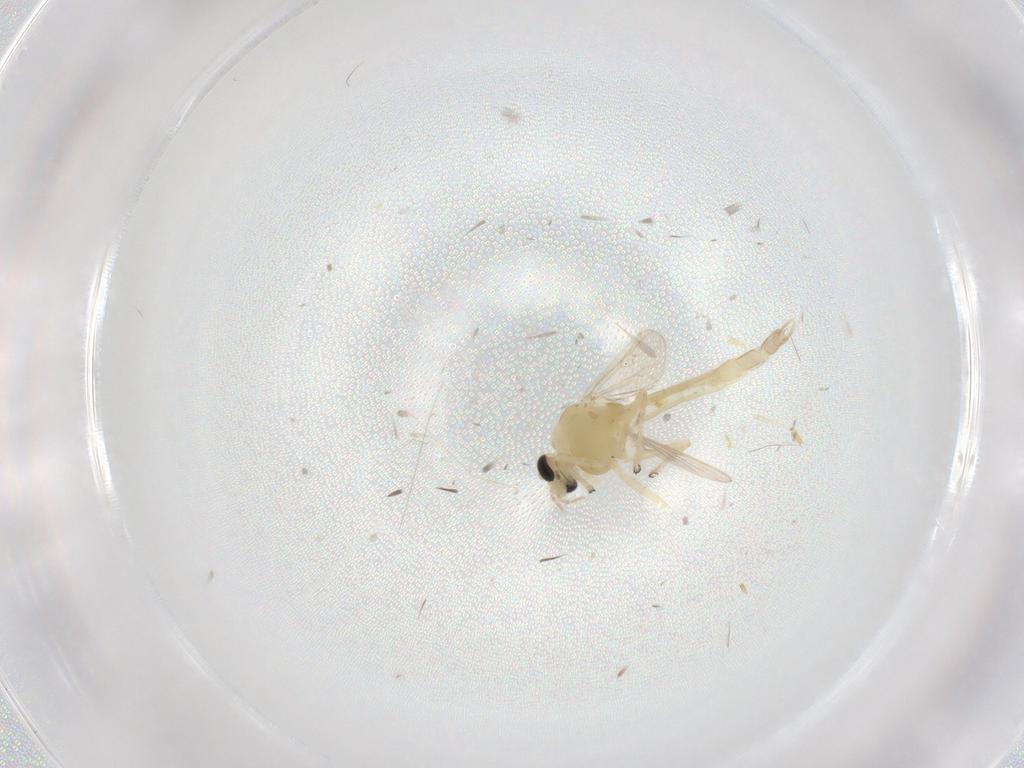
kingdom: Animalia
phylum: Arthropoda
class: Insecta
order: Diptera
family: Chironomidae
